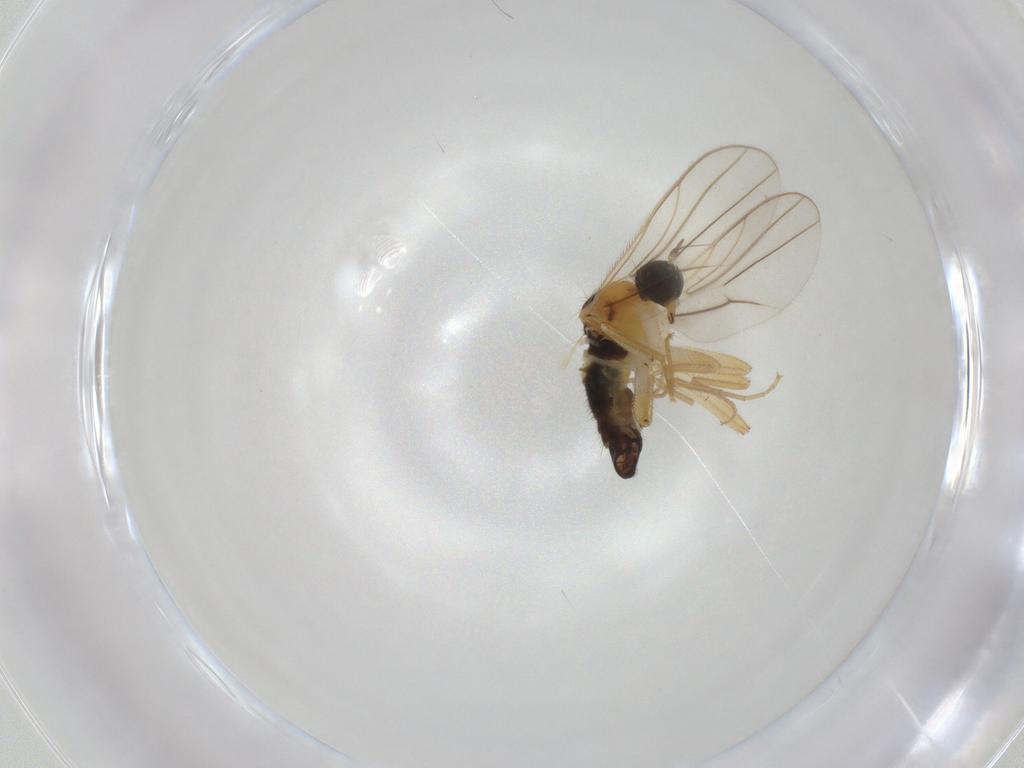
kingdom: Animalia
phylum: Arthropoda
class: Insecta
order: Diptera
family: Hybotidae
